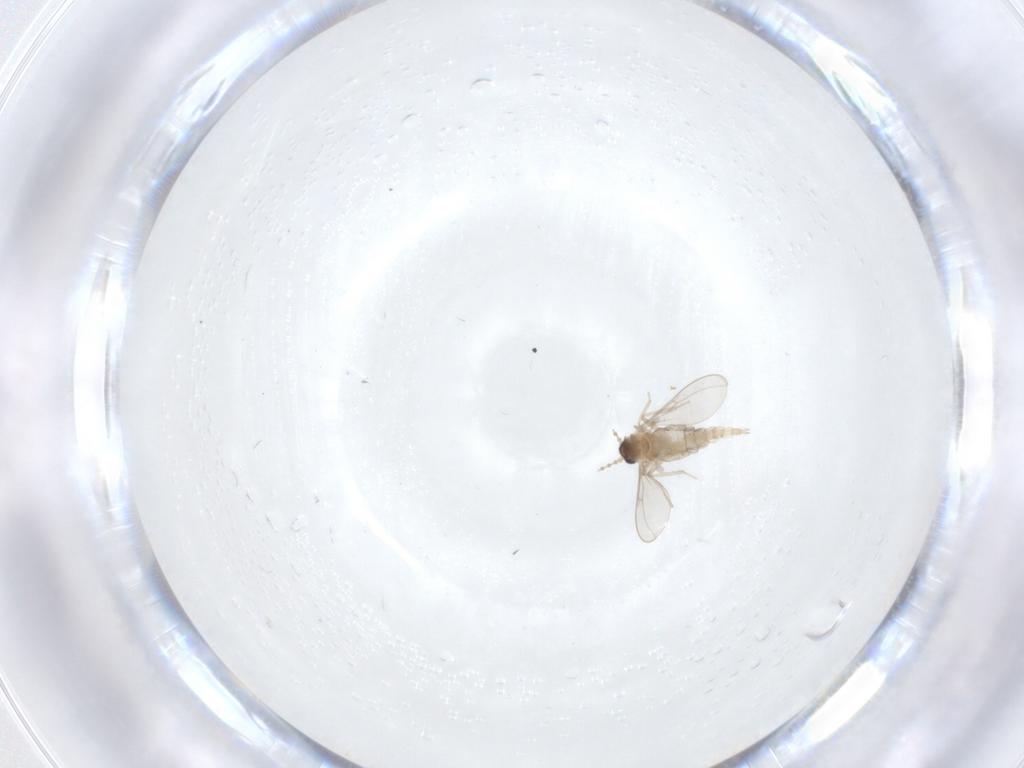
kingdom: Animalia
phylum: Arthropoda
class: Insecta
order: Diptera
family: Cecidomyiidae
